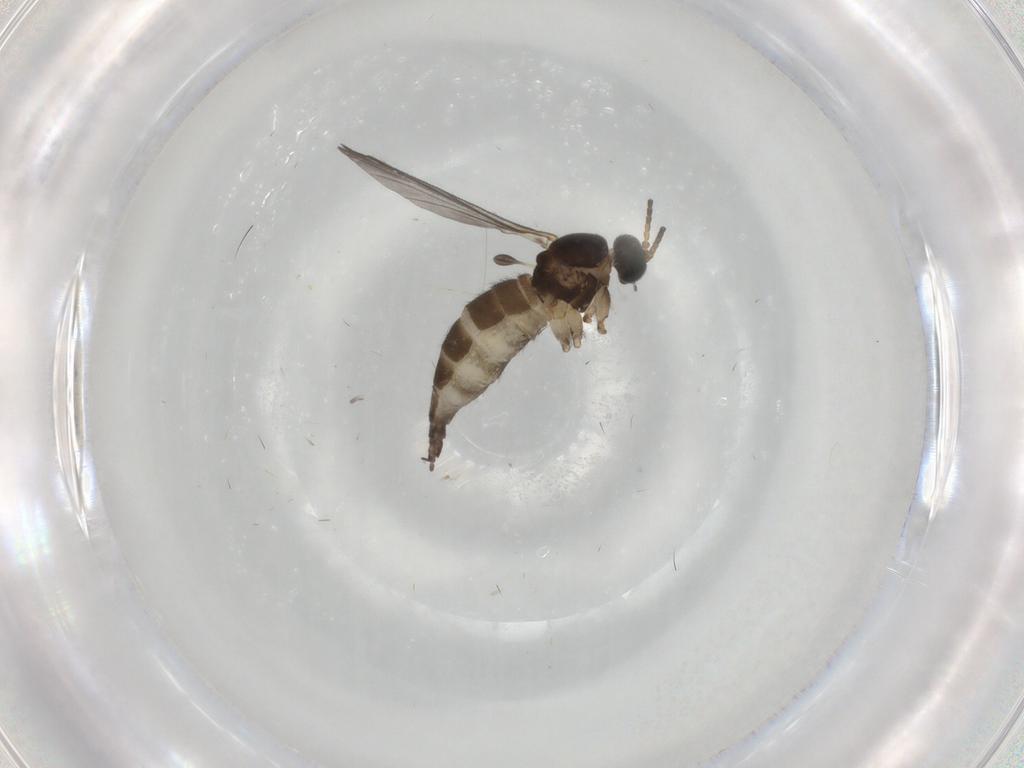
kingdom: Animalia
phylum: Arthropoda
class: Insecta
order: Diptera
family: Sciaridae
